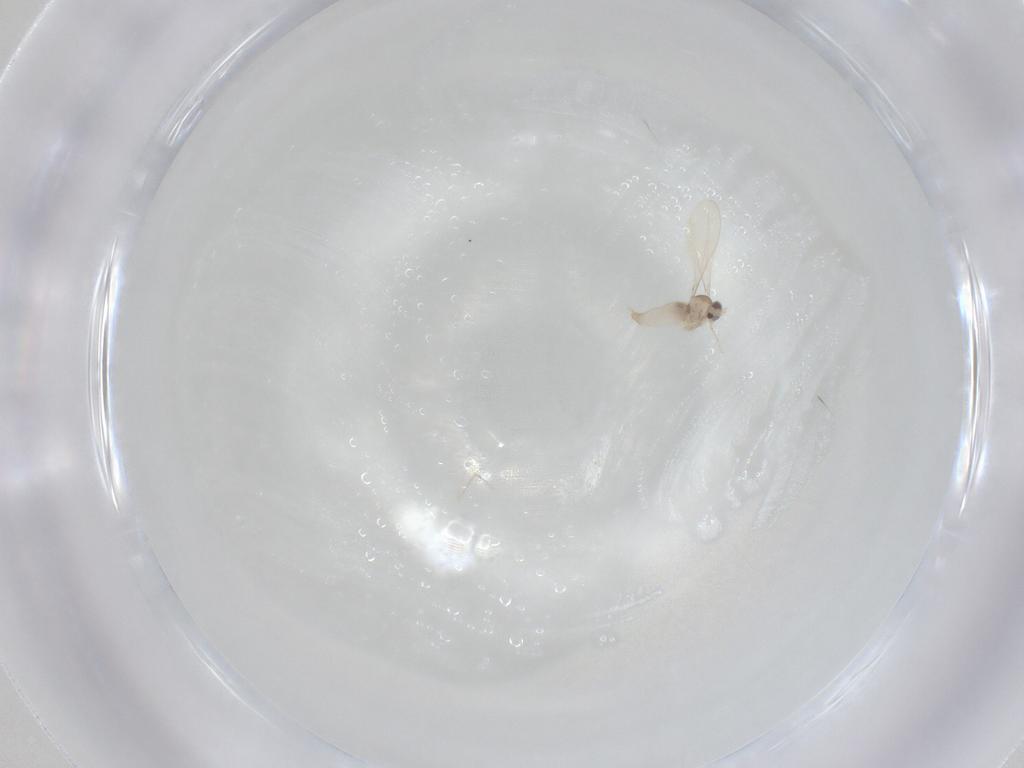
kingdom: Animalia
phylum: Arthropoda
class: Insecta
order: Diptera
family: Cecidomyiidae
